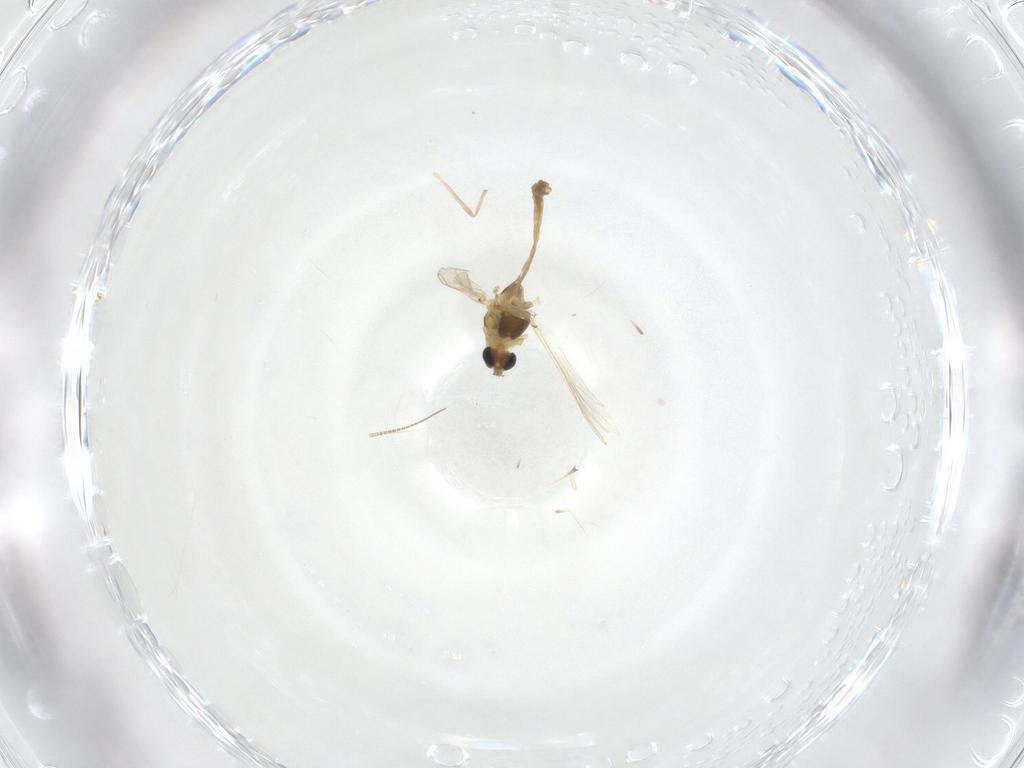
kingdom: Animalia
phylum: Arthropoda
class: Insecta
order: Diptera
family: Chironomidae
